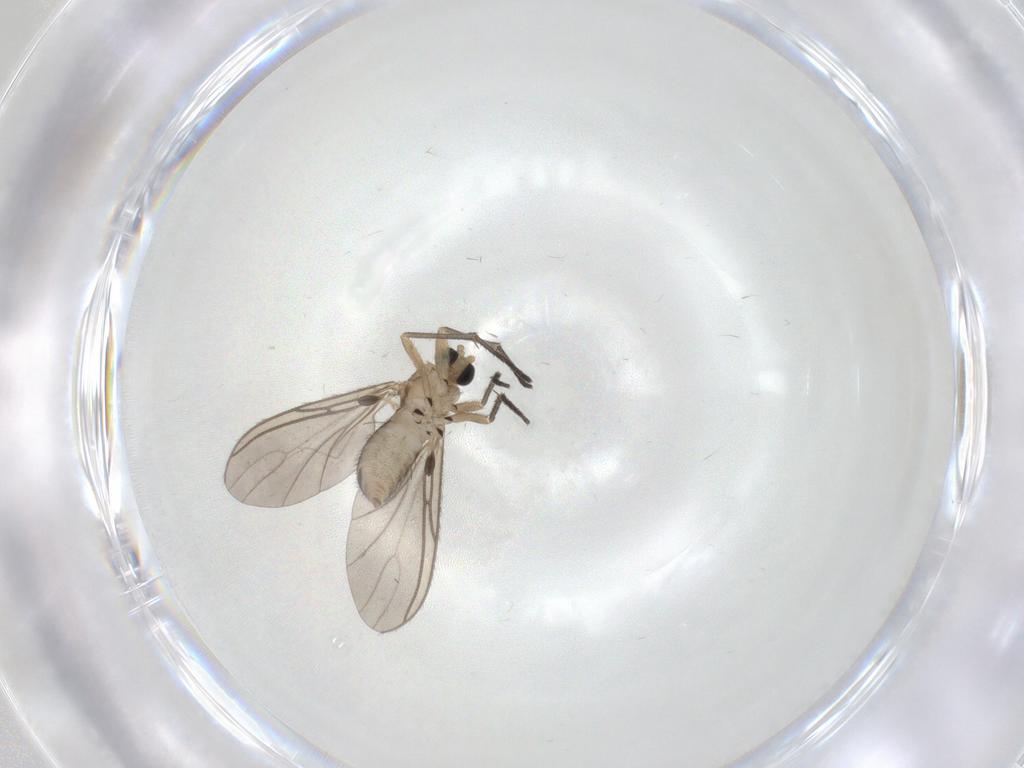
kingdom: Animalia
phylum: Arthropoda
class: Insecta
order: Diptera
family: Sciaridae
